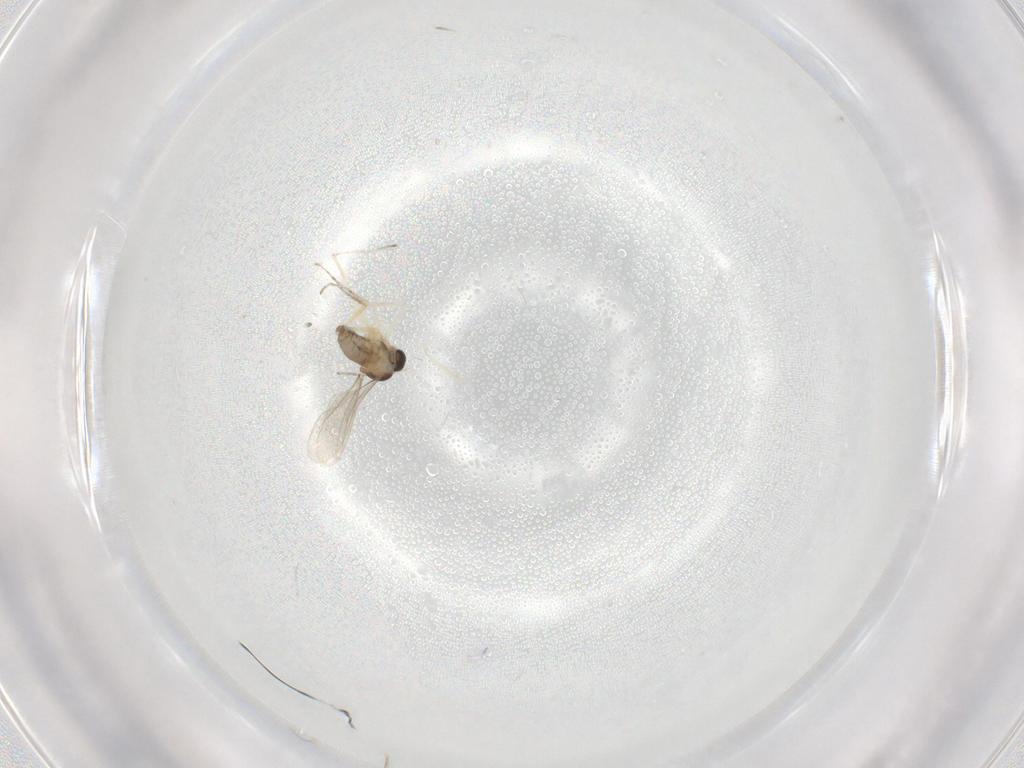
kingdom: Animalia
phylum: Arthropoda
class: Insecta
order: Diptera
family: Cecidomyiidae
